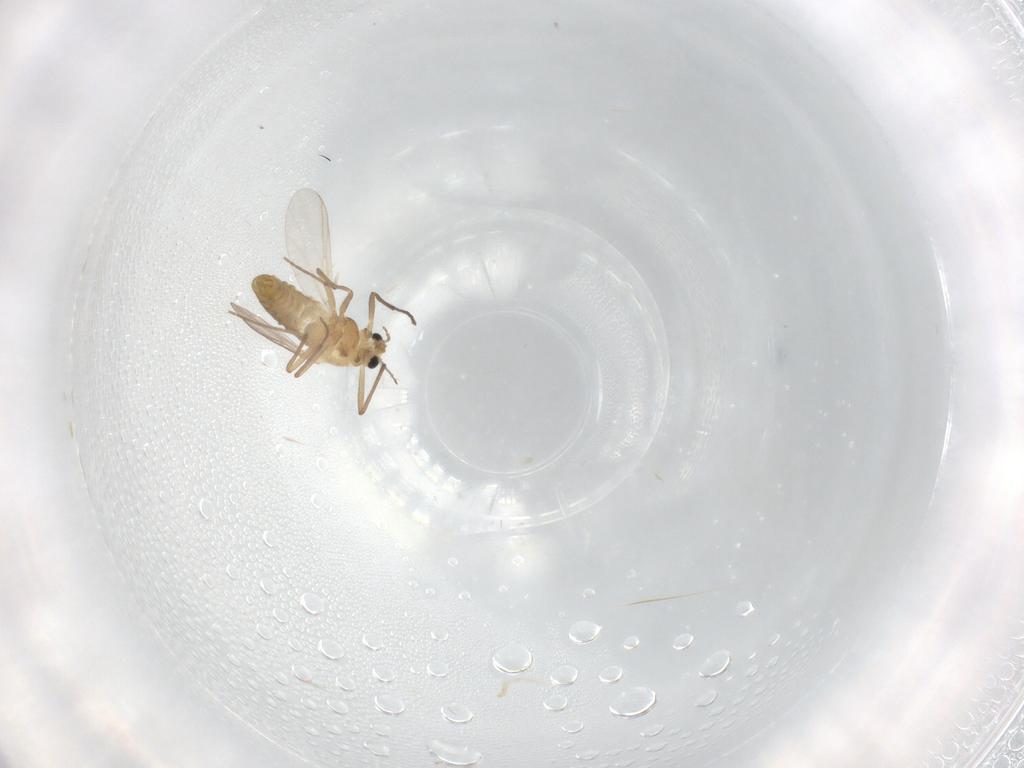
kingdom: Animalia
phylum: Arthropoda
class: Insecta
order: Diptera
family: Chironomidae
